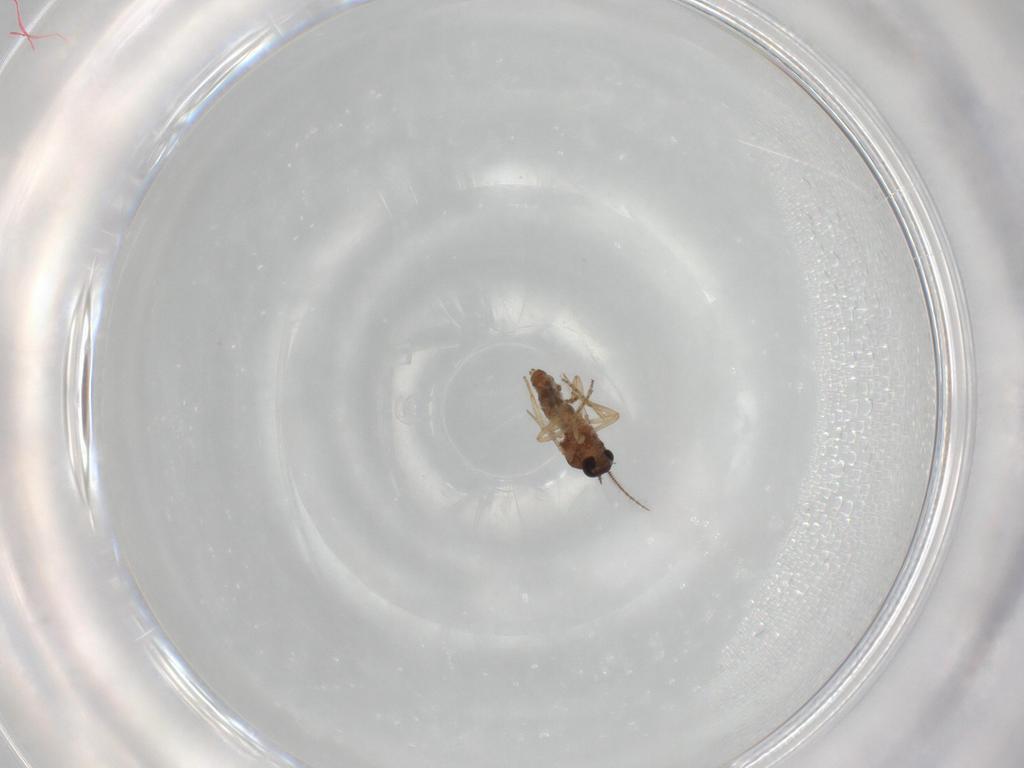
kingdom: Animalia
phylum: Arthropoda
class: Insecta
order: Diptera
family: Ceratopogonidae
